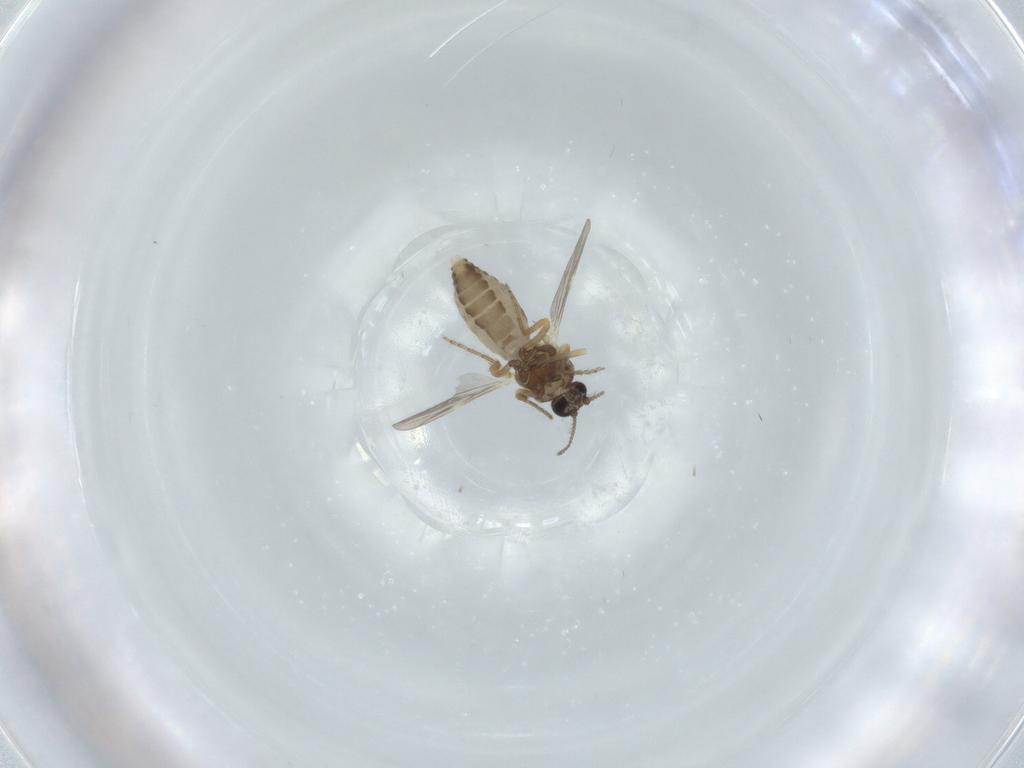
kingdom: Animalia
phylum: Arthropoda
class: Insecta
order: Diptera
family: Ceratopogonidae
